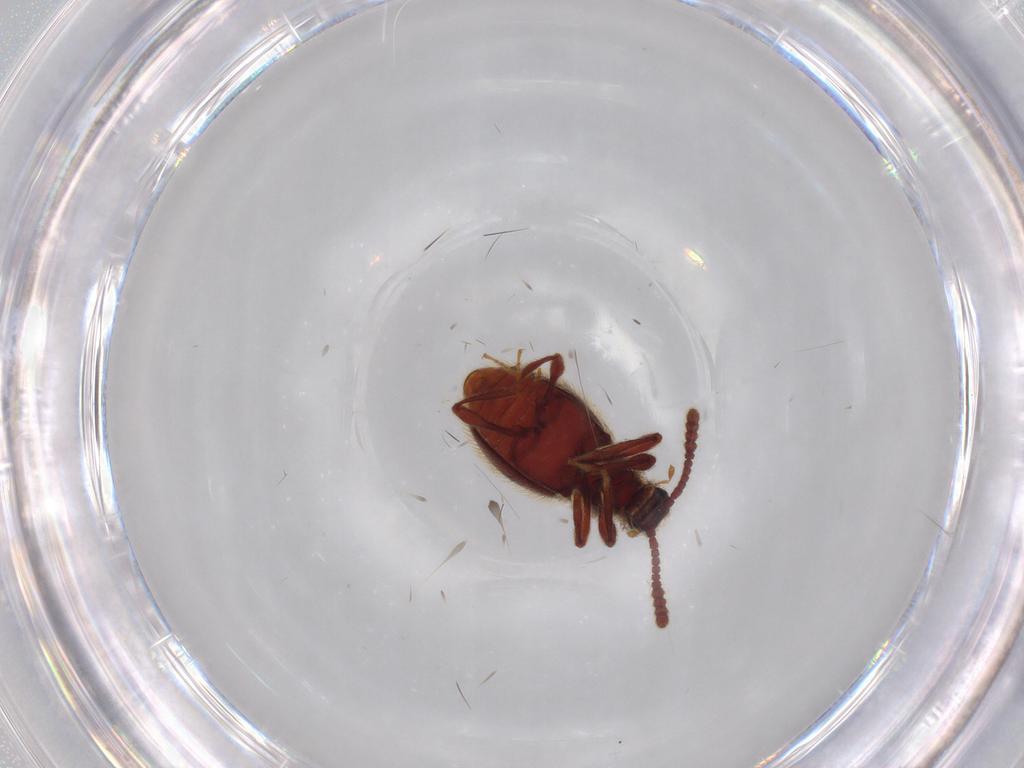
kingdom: Animalia
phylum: Arthropoda
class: Insecta
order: Coleoptera
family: Staphylinidae
